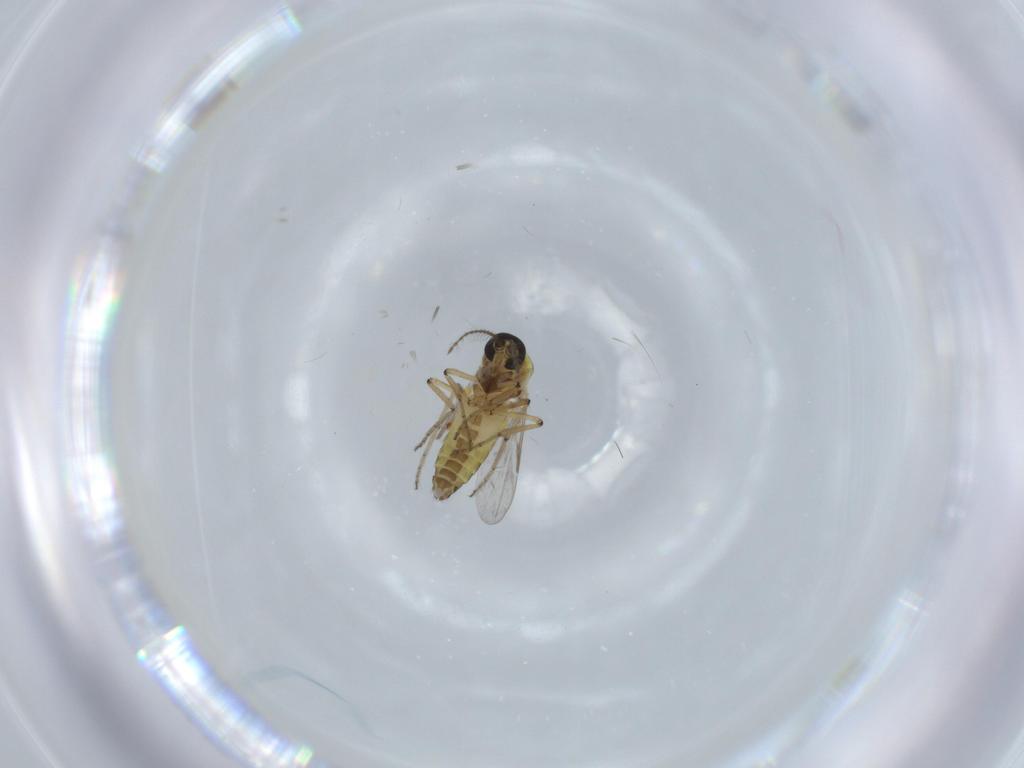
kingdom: Animalia
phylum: Arthropoda
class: Insecta
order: Diptera
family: Ceratopogonidae
